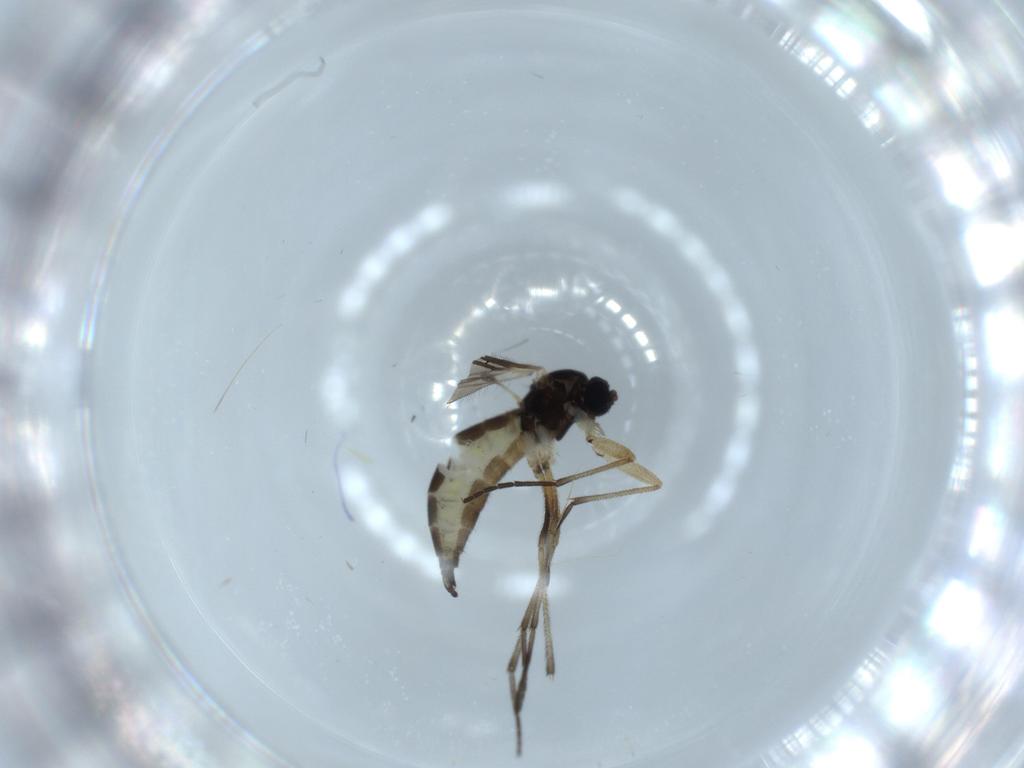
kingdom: Animalia
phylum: Arthropoda
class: Insecta
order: Diptera
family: Sciaridae
